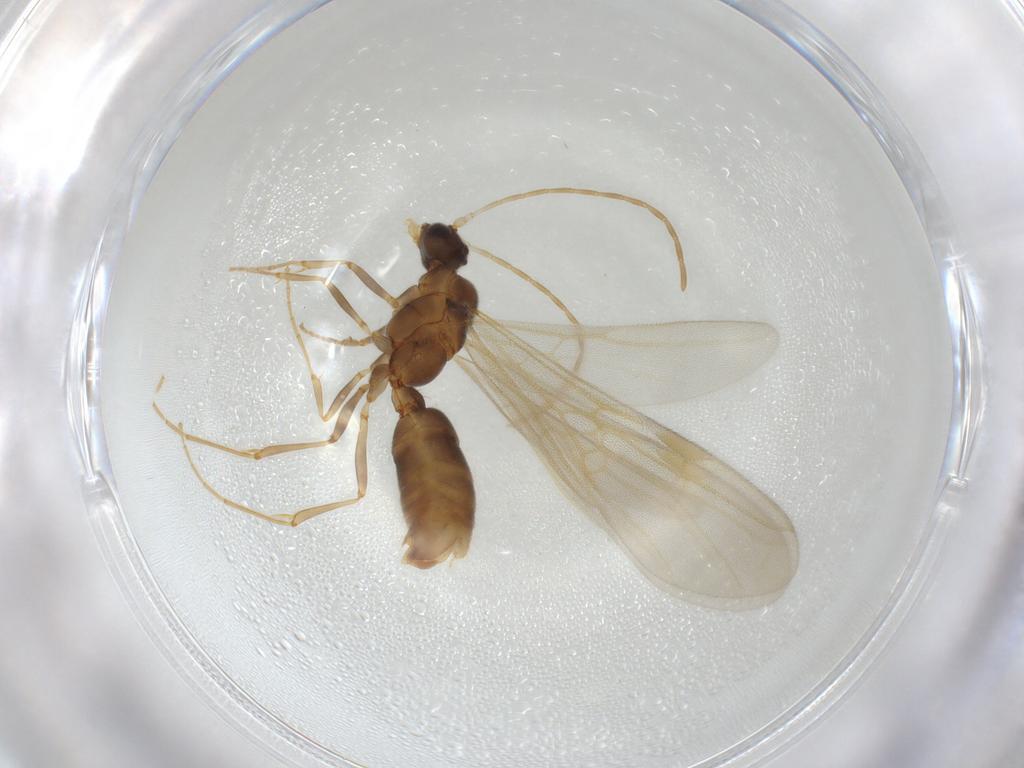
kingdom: Animalia
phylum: Arthropoda
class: Insecta
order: Hymenoptera
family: Formicidae
